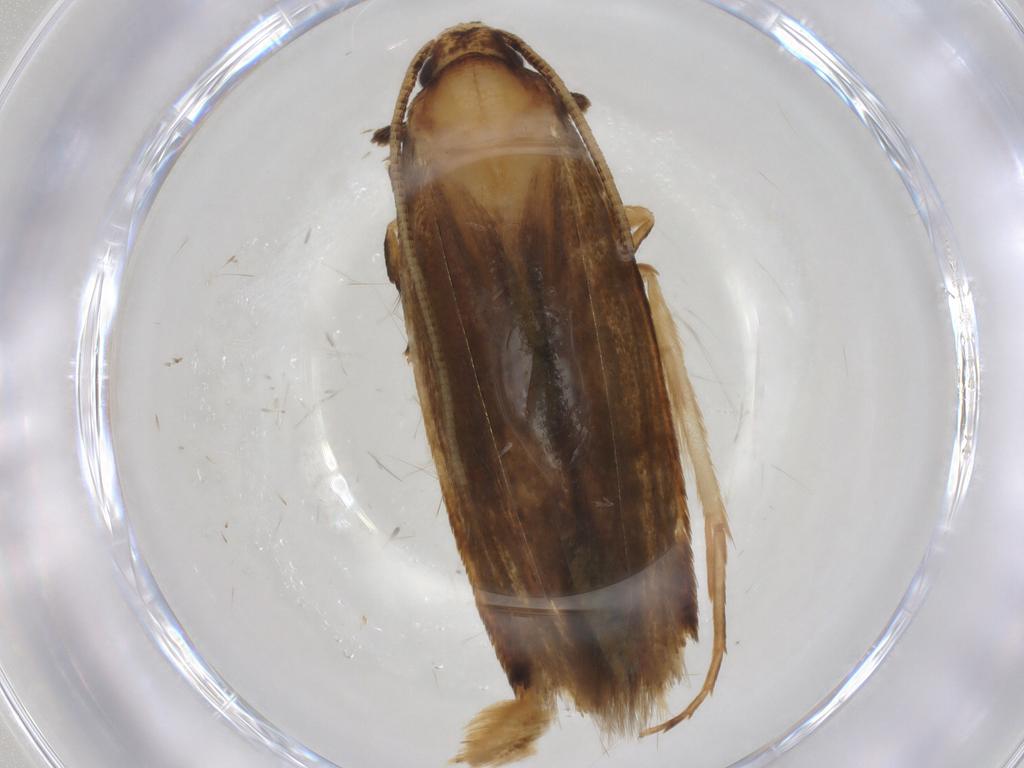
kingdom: Animalia
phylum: Arthropoda
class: Insecta
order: Lepidoptera
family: Tineidae
